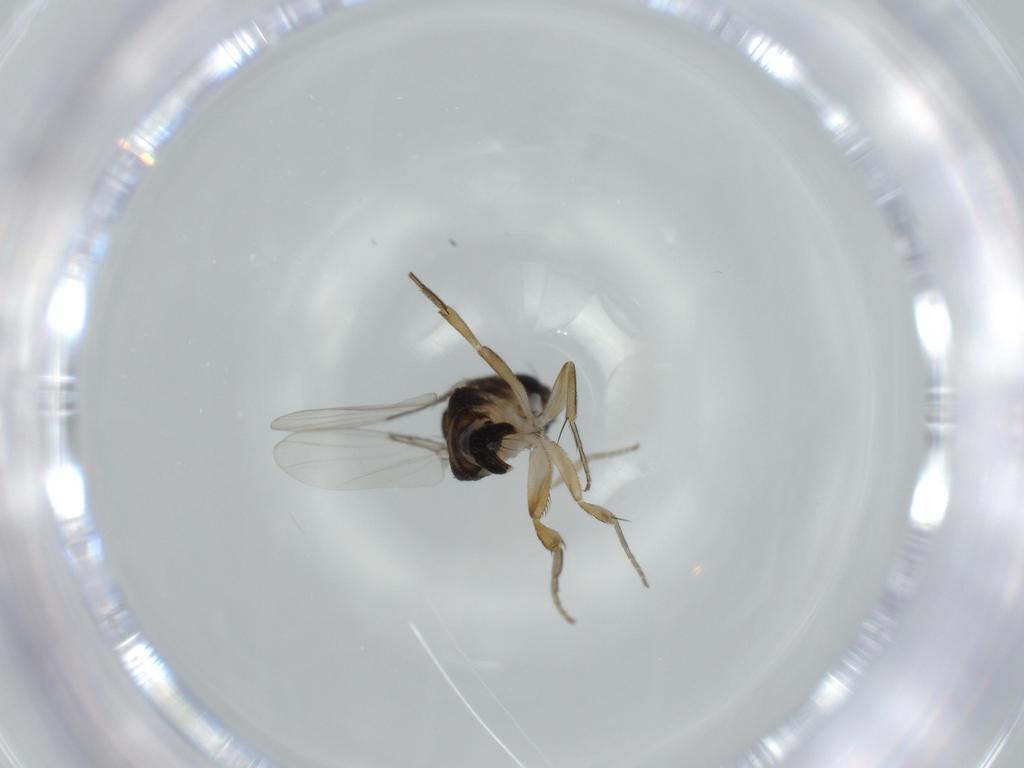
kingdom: Animalia
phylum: Arthropoda
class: Insecta
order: Diptera
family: Phoridae
